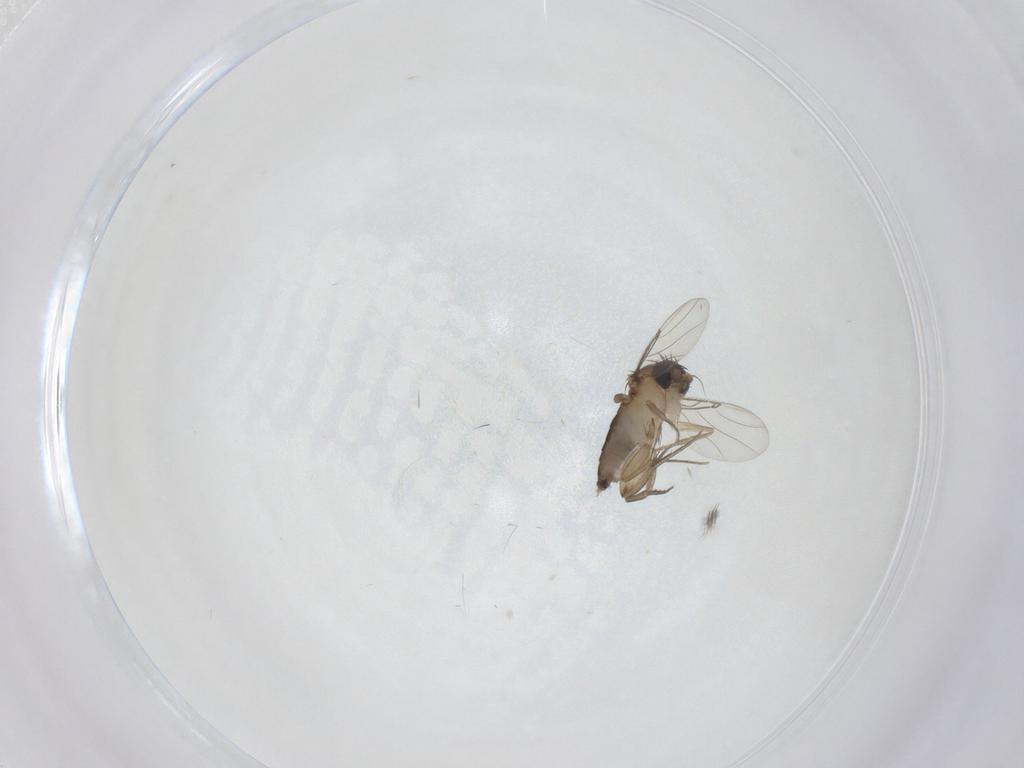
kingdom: Animalia
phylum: Arthropoda
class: Insecta
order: Diptera
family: Phoridae
